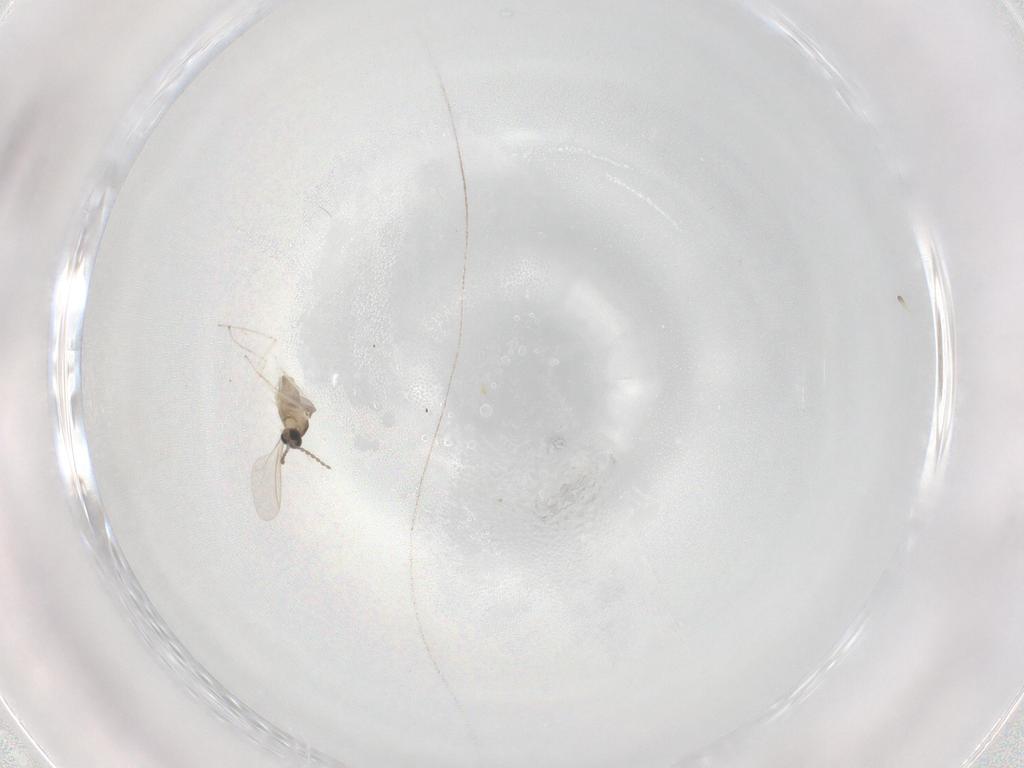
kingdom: Animalia
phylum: Arthropoda
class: Insecta
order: Diptera
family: Cecidomyiidae
